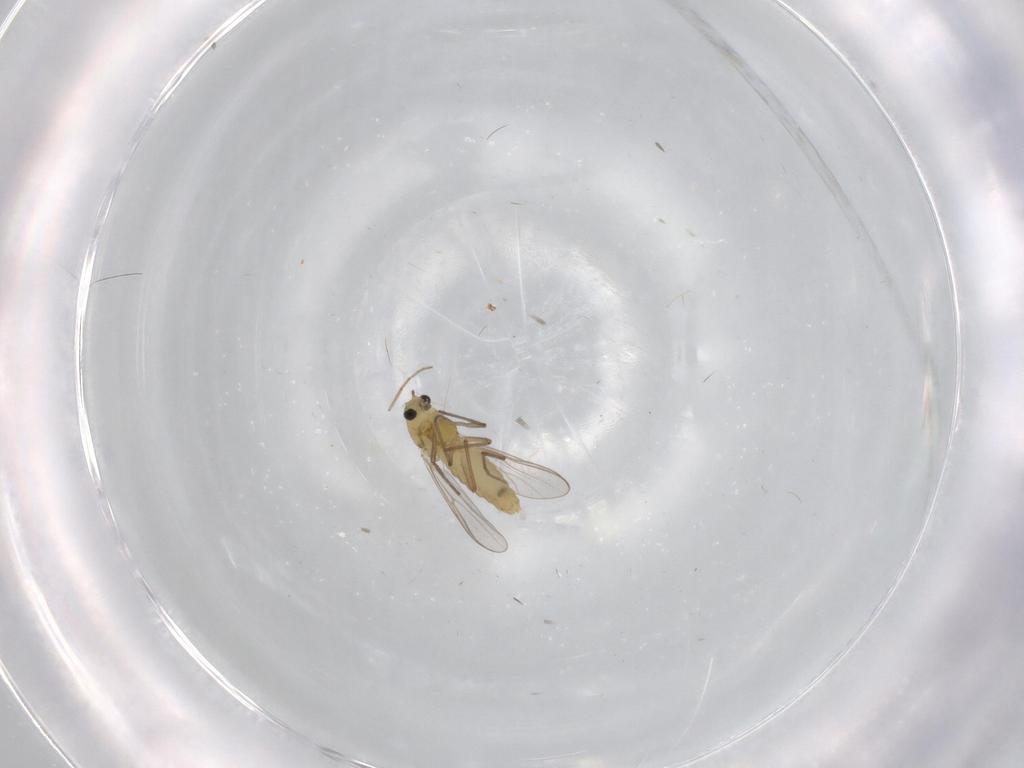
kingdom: Animalia
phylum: Arthropoda
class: Insecta
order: Diptera
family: Chironomidae
